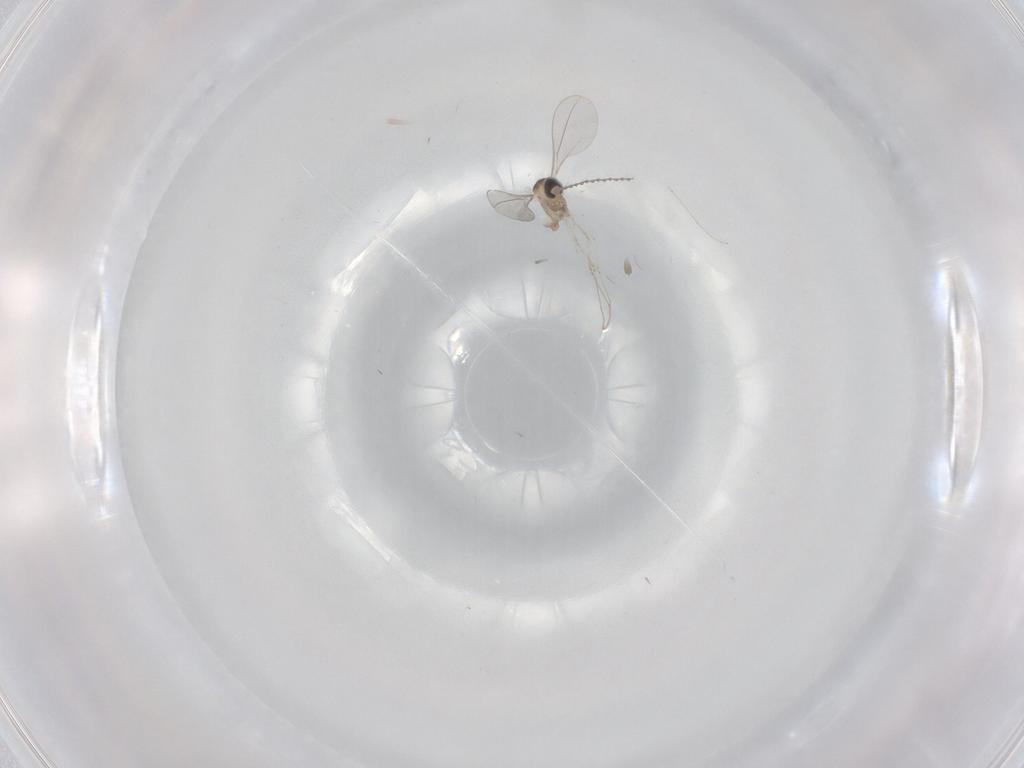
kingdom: Animalia
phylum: Arthropoda
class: Insecta
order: Diptera
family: Cecidomyiidae
